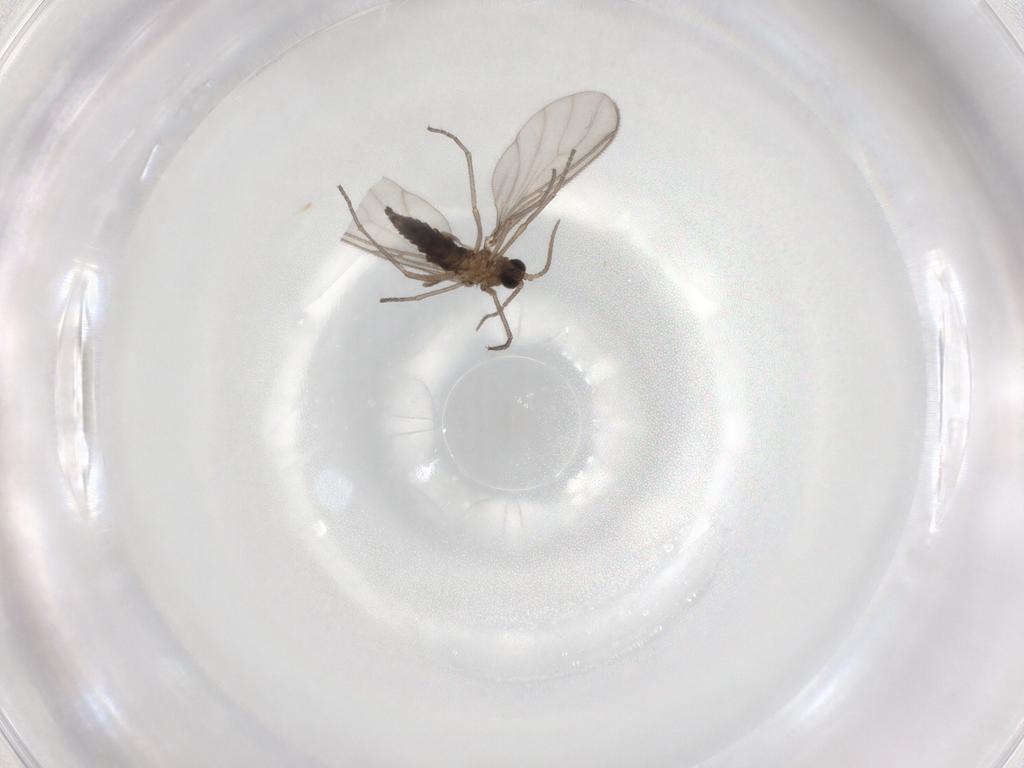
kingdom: Animalia
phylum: Arthropoda
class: Insecta
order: Diptera
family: Sciaridae
